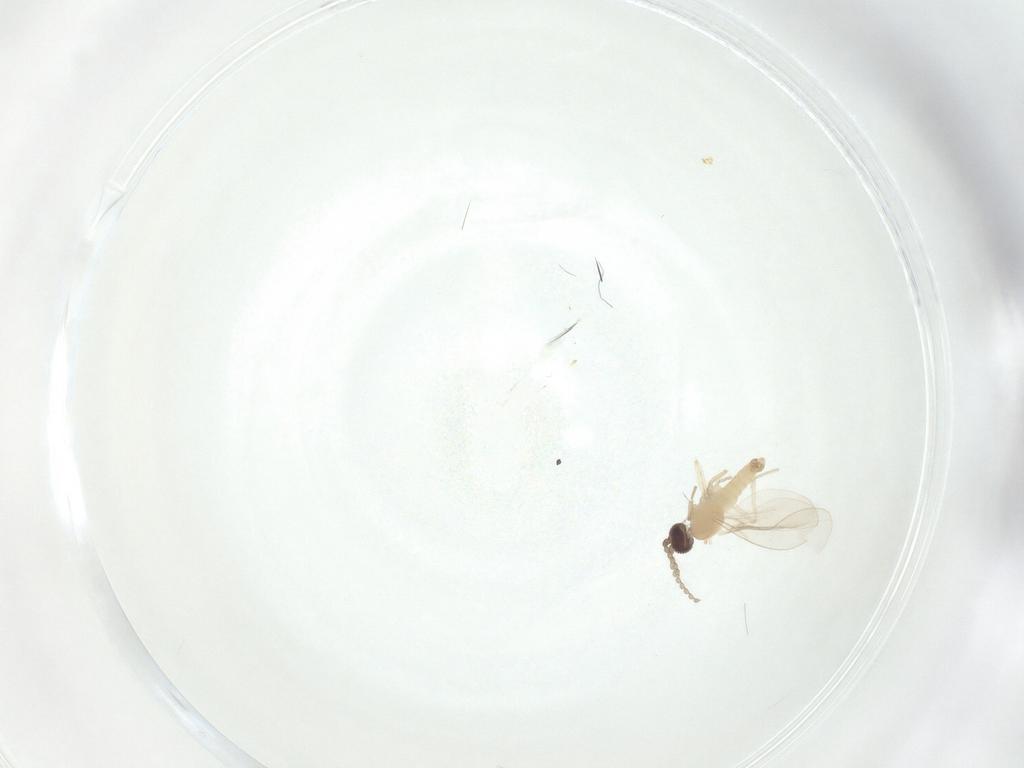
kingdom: Animalia
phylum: Arthropoda
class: Insecta
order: Diptera
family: Cecidomyiidae
